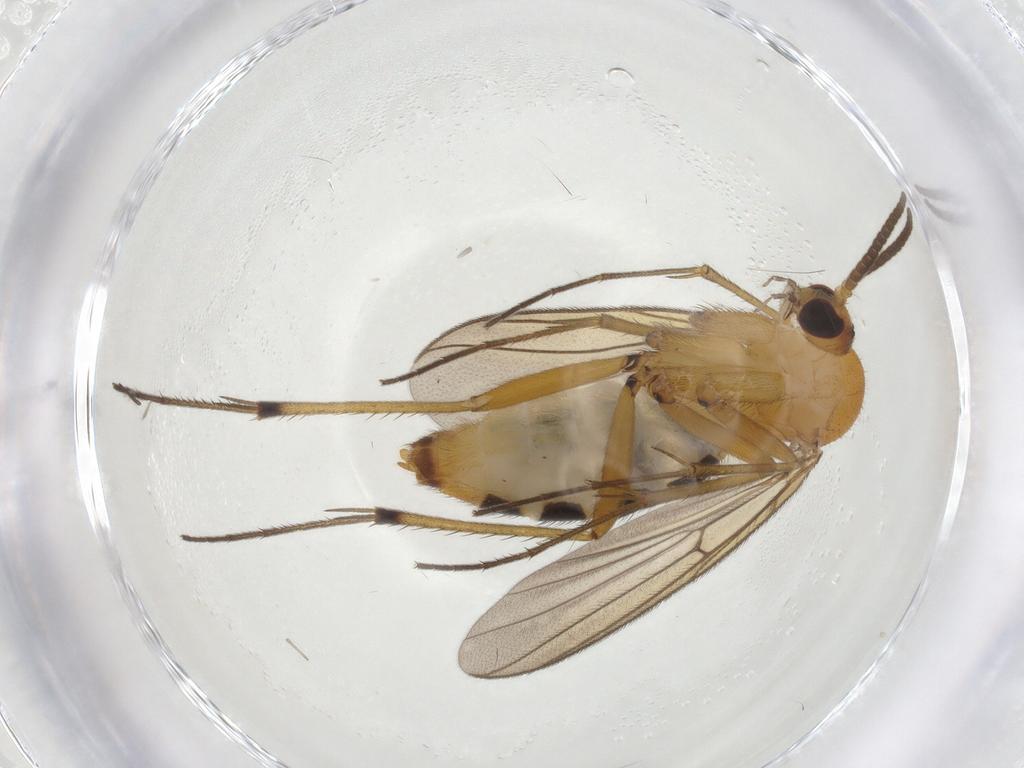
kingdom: Animalia
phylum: Arthropoda
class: Insecta
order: Diptera
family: Mycetophilidae
